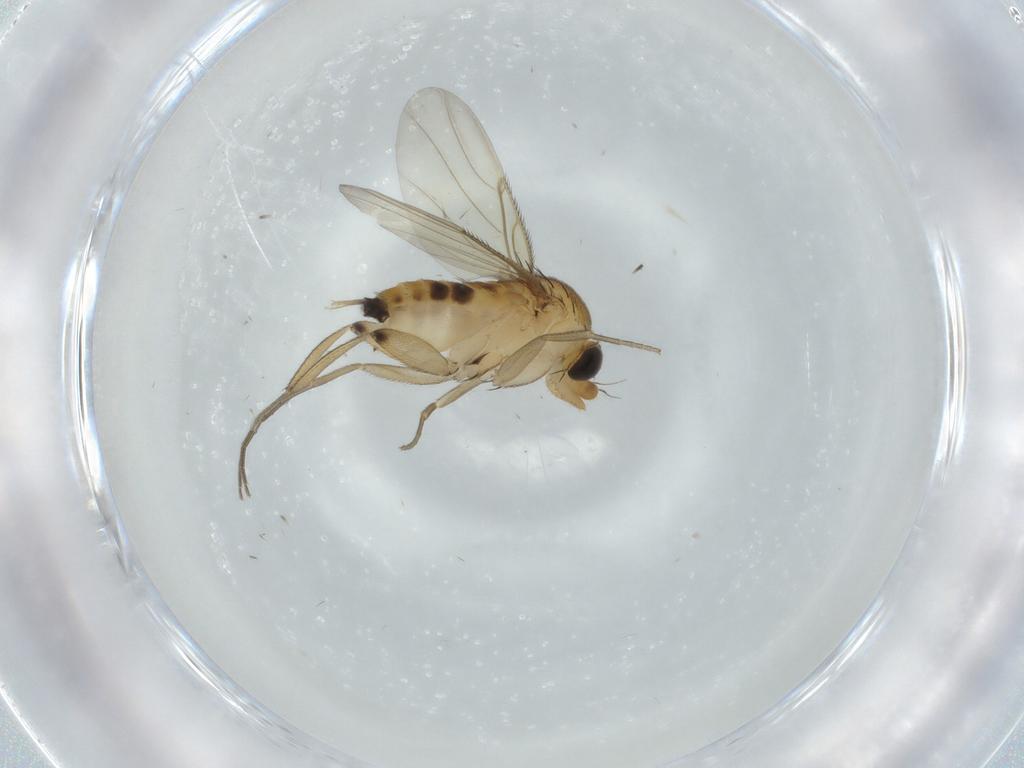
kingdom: Animalia
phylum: Arthropoda
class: Insecta
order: Diptera
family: Phoridae
